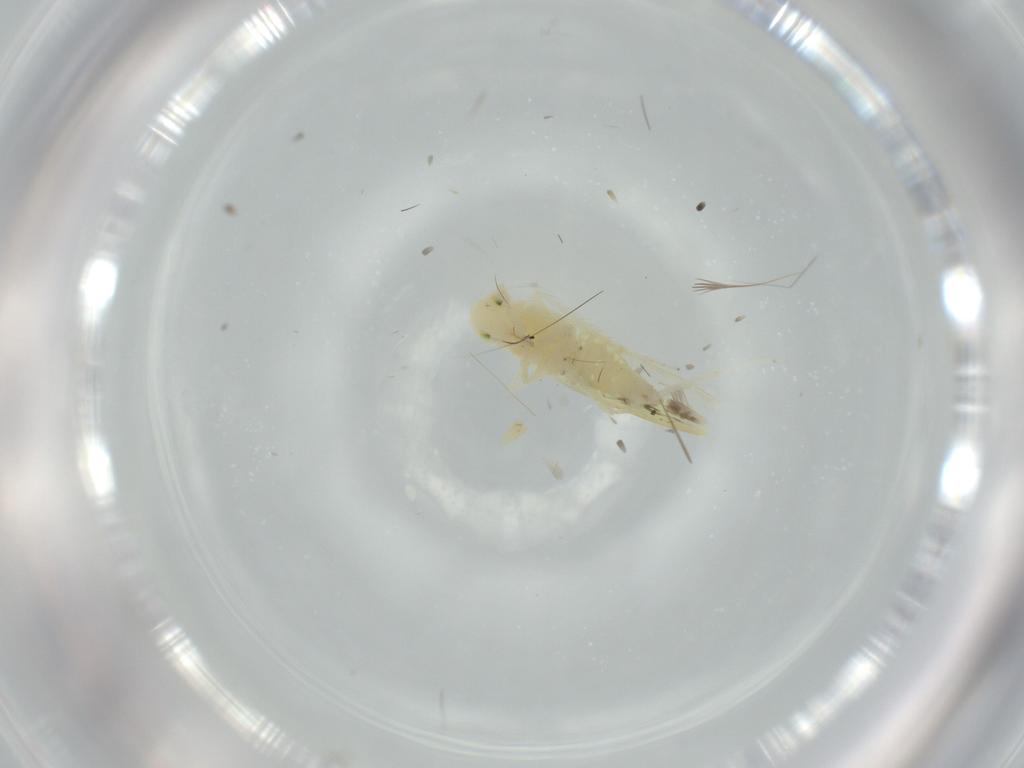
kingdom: Animalia
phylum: Arthropoda
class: Insecta
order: Hemiptera
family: Cicadellidae
